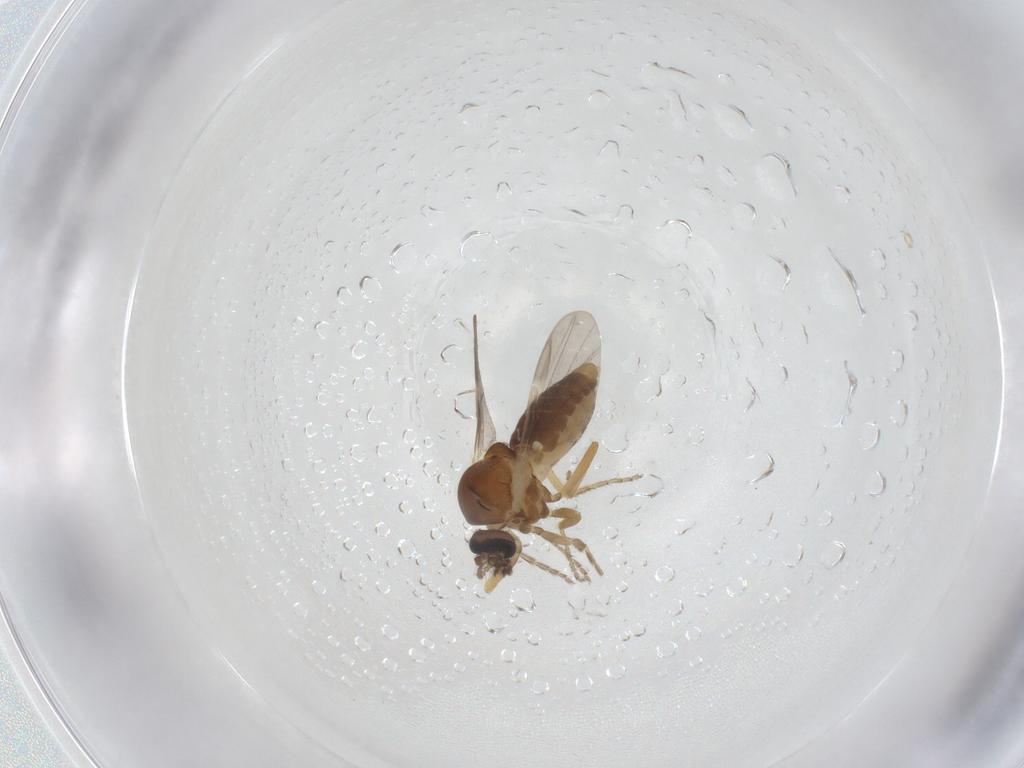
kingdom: Animalia
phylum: Arthropoda
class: Insecta
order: Diptera
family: Ceratopogonidae
